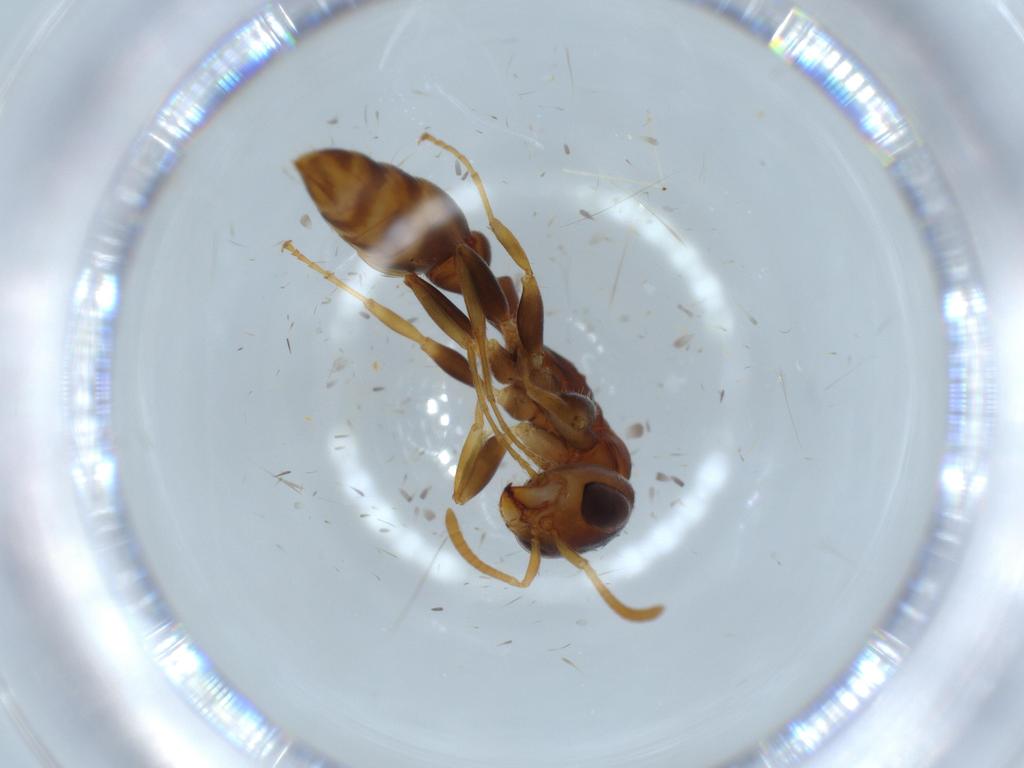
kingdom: Animalia
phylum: Arthropoda
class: Insecta
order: Hymenoptera
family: Formicidae
